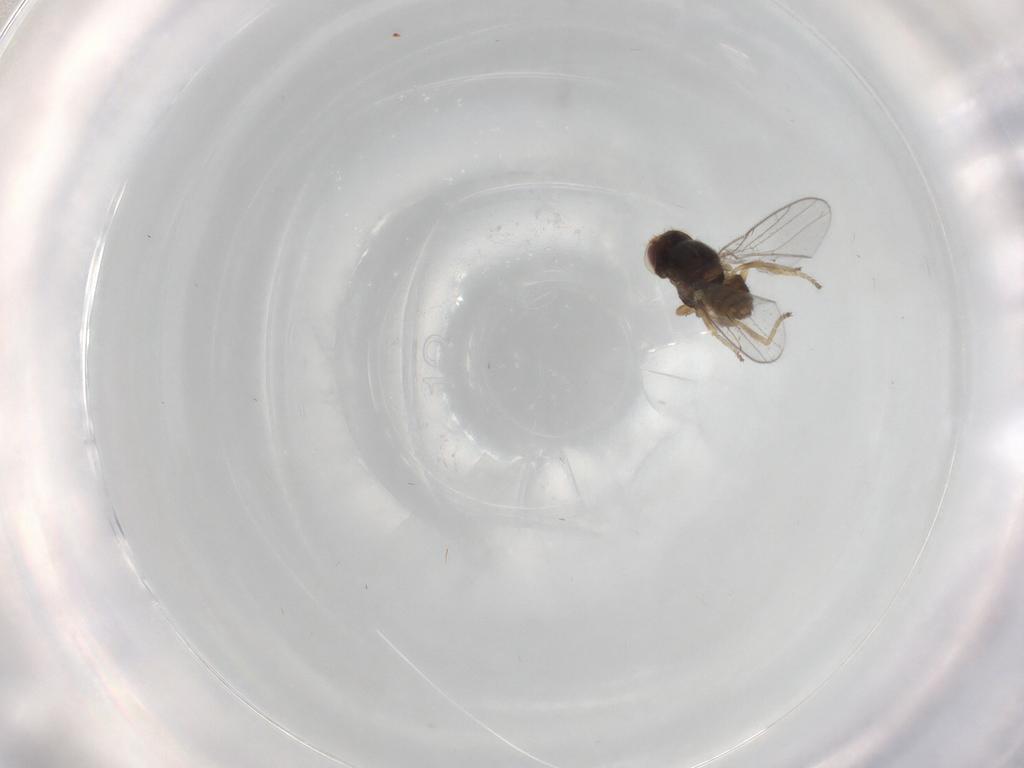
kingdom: Animalia
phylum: Arthropoda
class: Insecta
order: Diptera
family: Chloropidae
